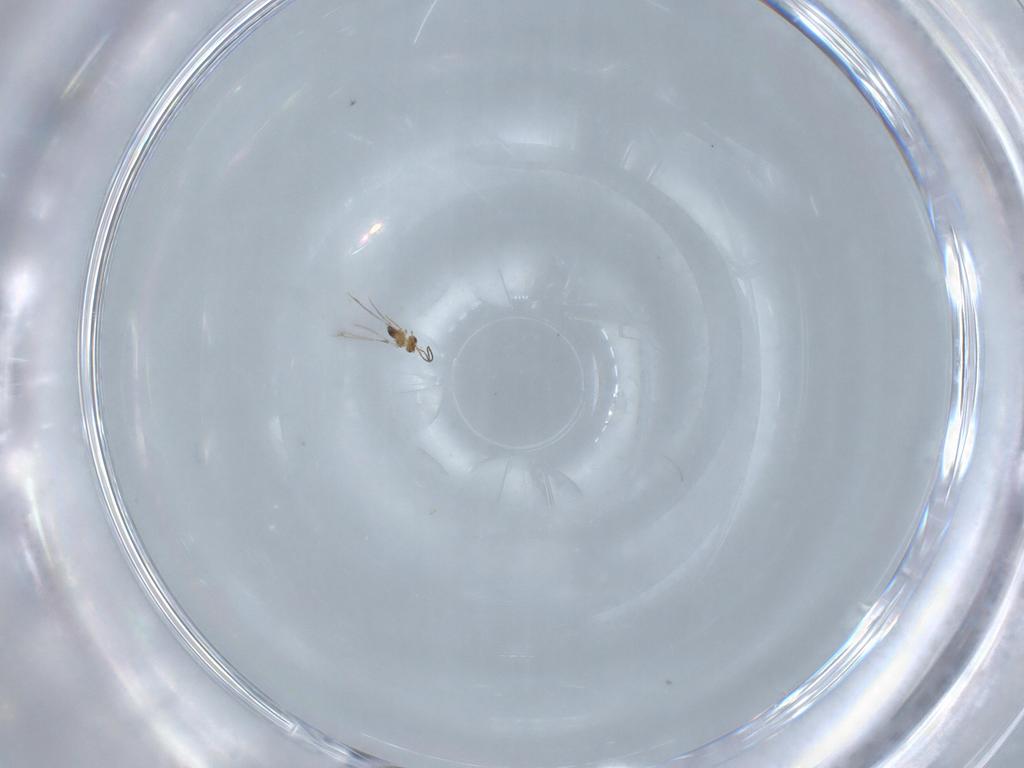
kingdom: Animalia
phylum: Arthropoda
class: Insecta
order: Hymenoptera
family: Mymaridae
